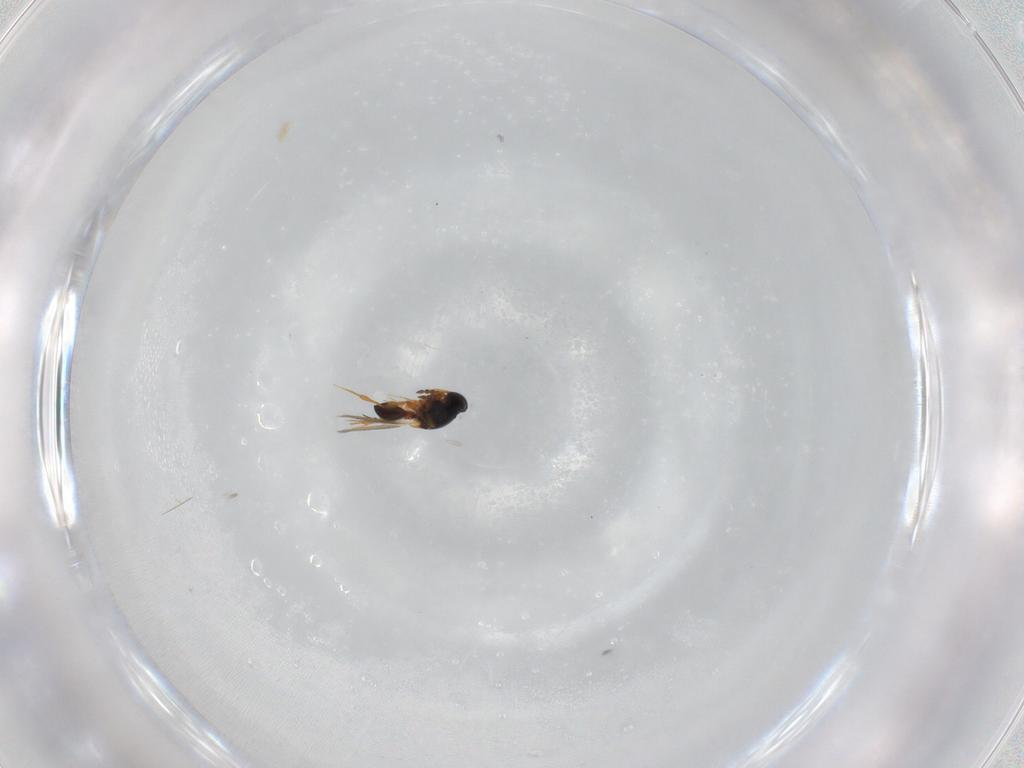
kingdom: Animalia
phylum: Arthropoda
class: Insecta
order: Hymenoptera
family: Platygastridae
